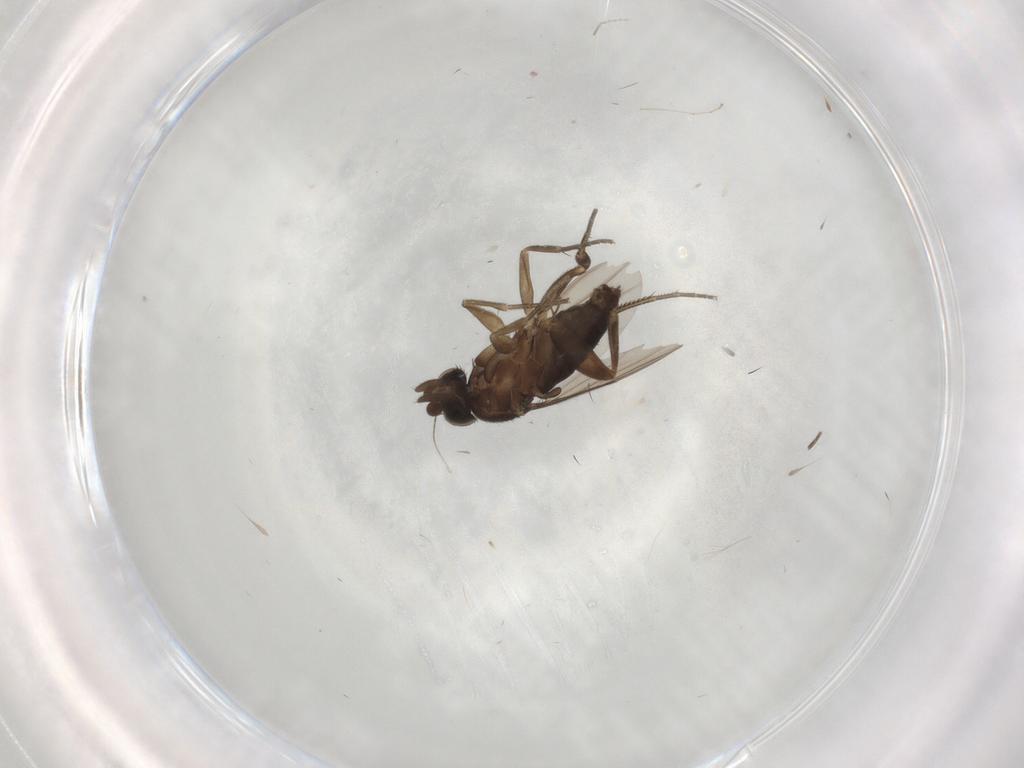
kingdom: Animalia
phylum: Arthropoda
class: Insecta
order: Diptera
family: Phoridae
